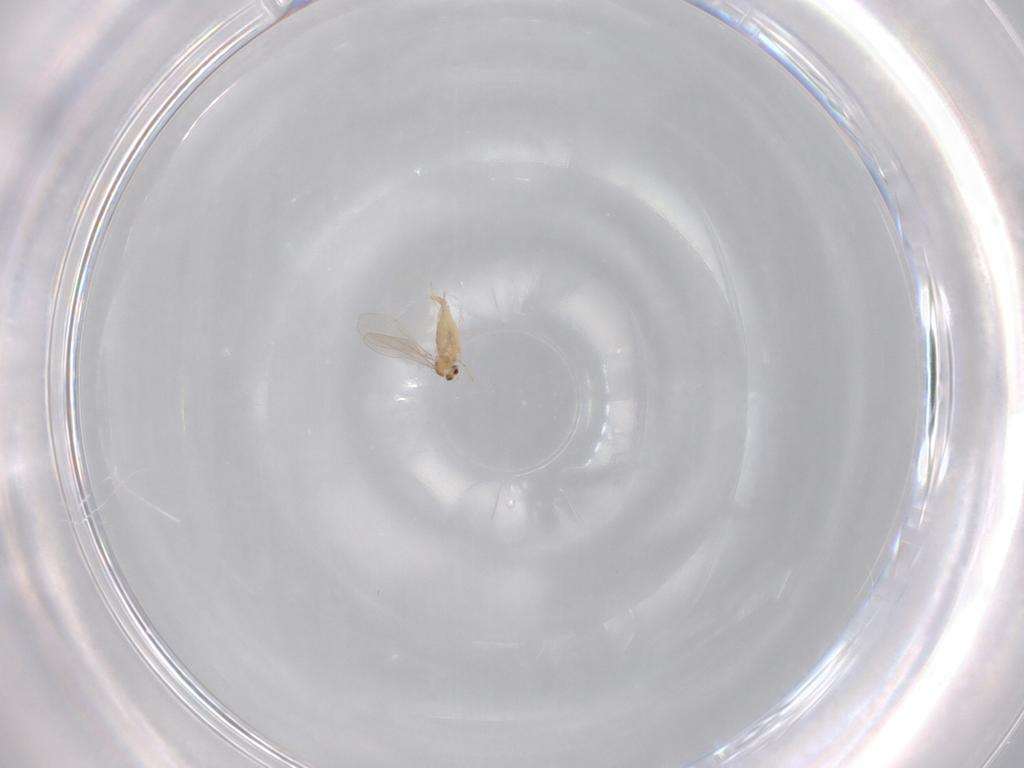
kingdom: Animalia
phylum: Arthropoda
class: Insecta
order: Diptera
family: Cecidomyiidae
